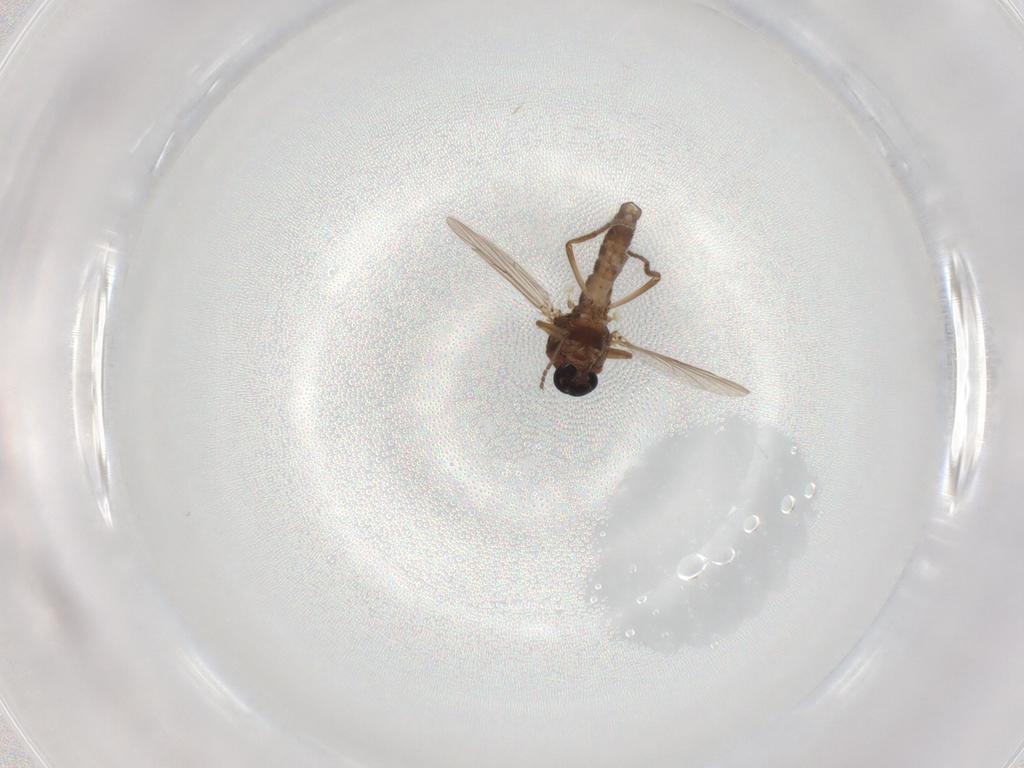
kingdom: Animalia
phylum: Arthropoda
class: Insecta
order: Diptera
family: Ceratopogonidae
